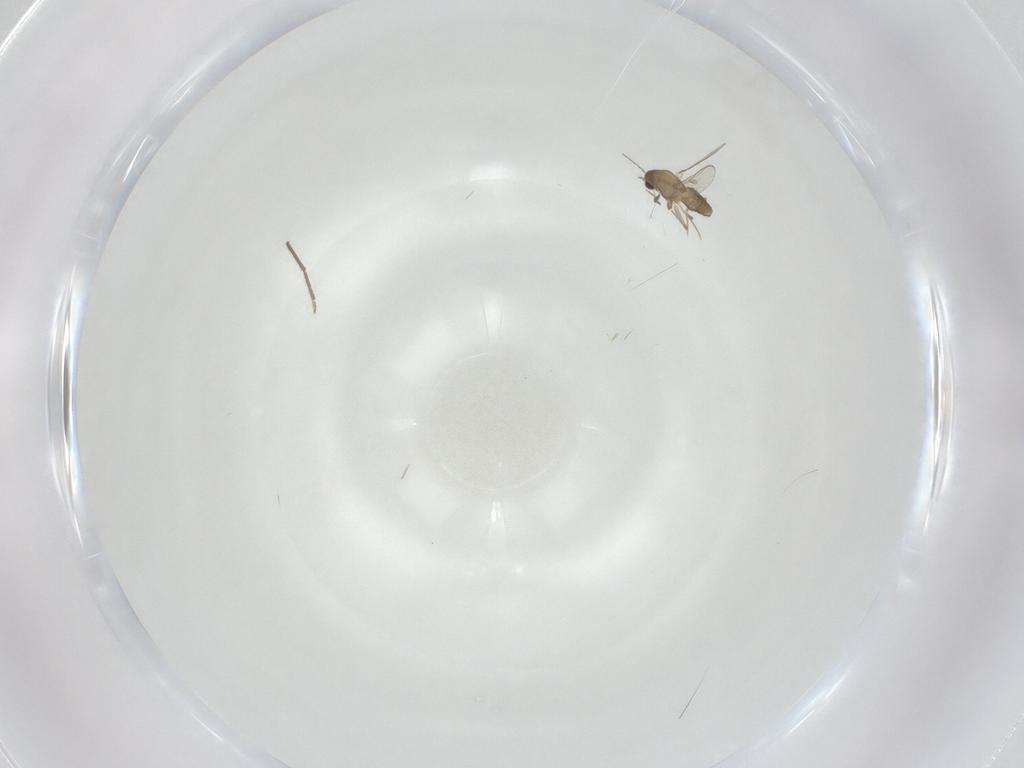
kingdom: Animalia
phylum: Arthropoda
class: Insecta
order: Diptera
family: Chironomidae
